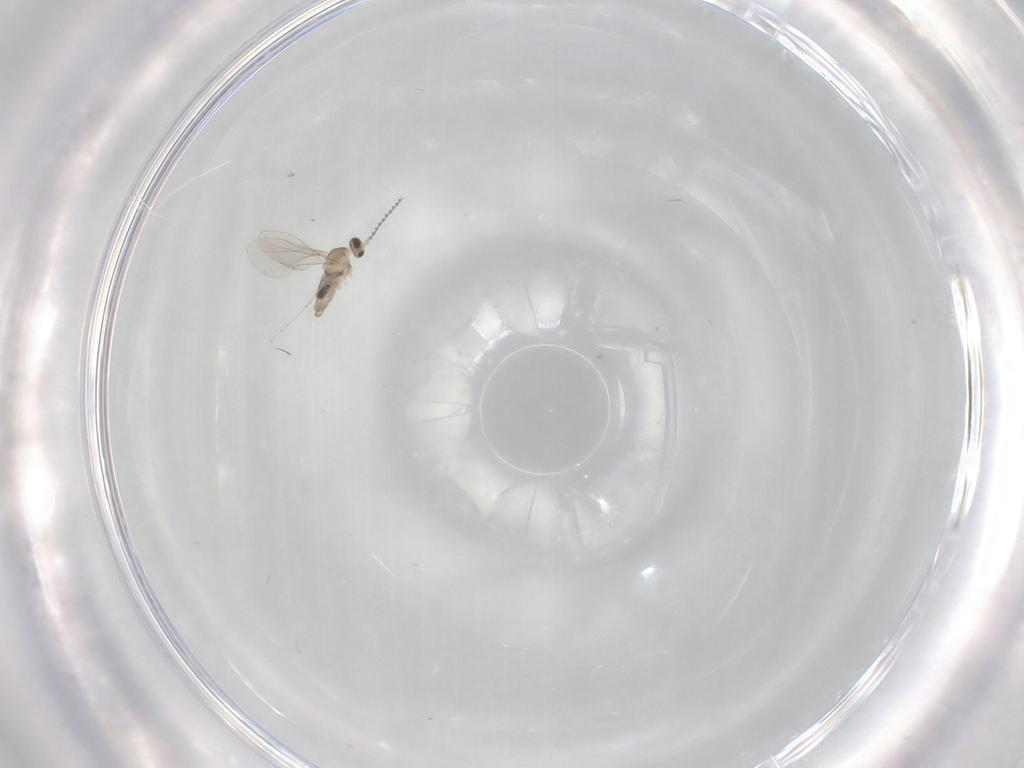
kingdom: Animalia
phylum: Arthropoda
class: Insecta
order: Diptera
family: Cecidomyiidae
